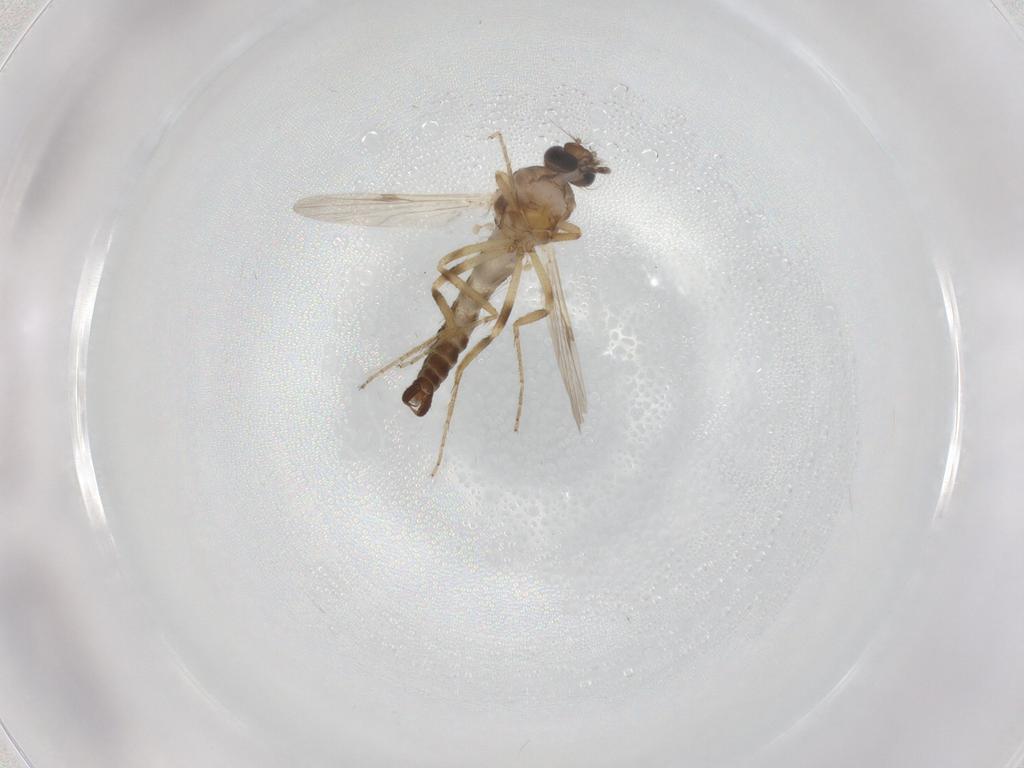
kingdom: Animalia
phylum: Arthropoda
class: Insecta
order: Diptera
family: Ceratopogonidae
